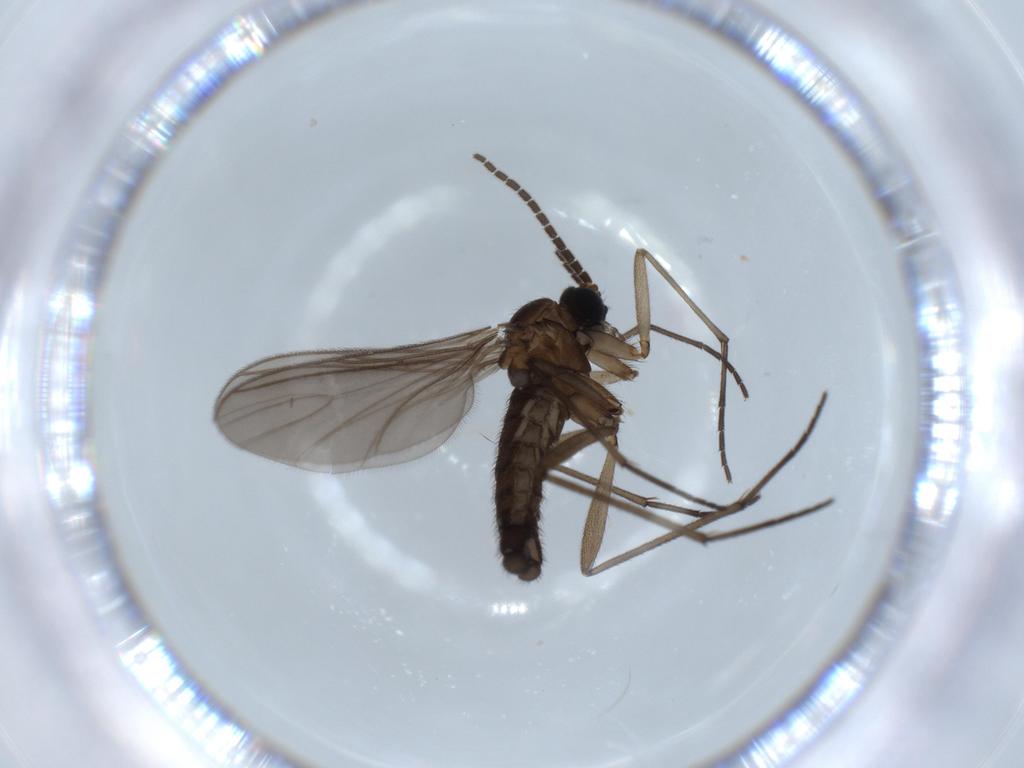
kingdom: Animalia
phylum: Arthropoda
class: Insecta
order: Diptera
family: Sciaridae
